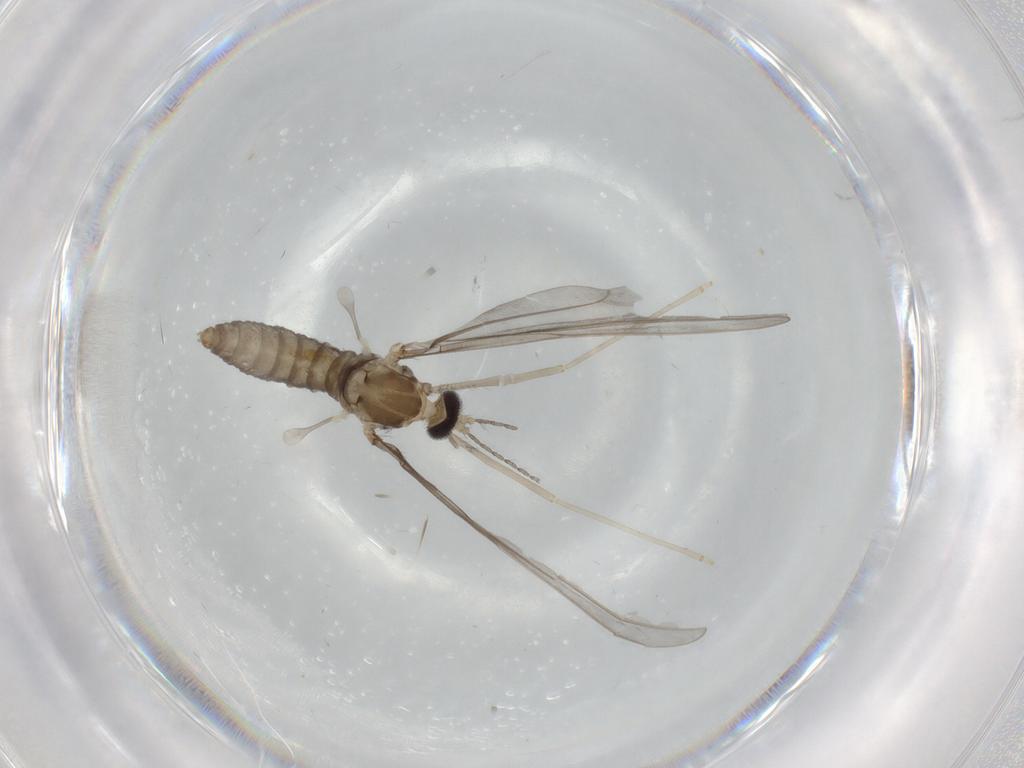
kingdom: Animalia
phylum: Arthropoda
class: Insecta
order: Diptera
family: Cecidomyiidae
